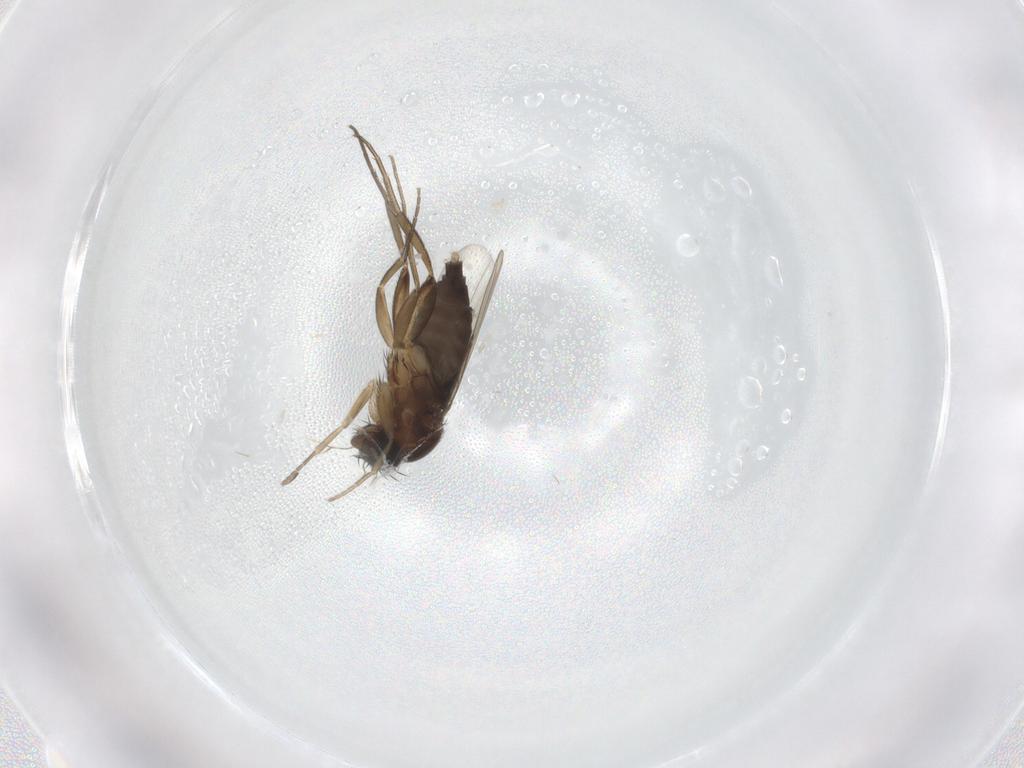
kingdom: Animalia
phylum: Arthropoda
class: Insecta
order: Diptera
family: Phoridae
